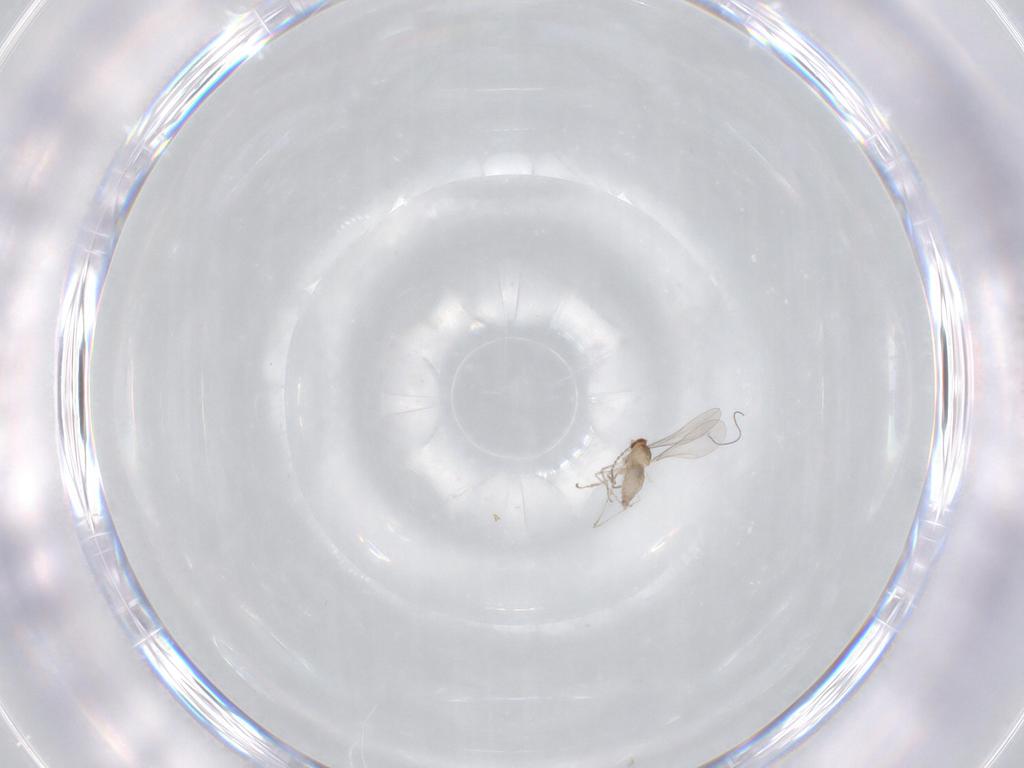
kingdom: Animalia
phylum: Arthropoda
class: Insecta
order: Diptera
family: Cecidomyiidae
